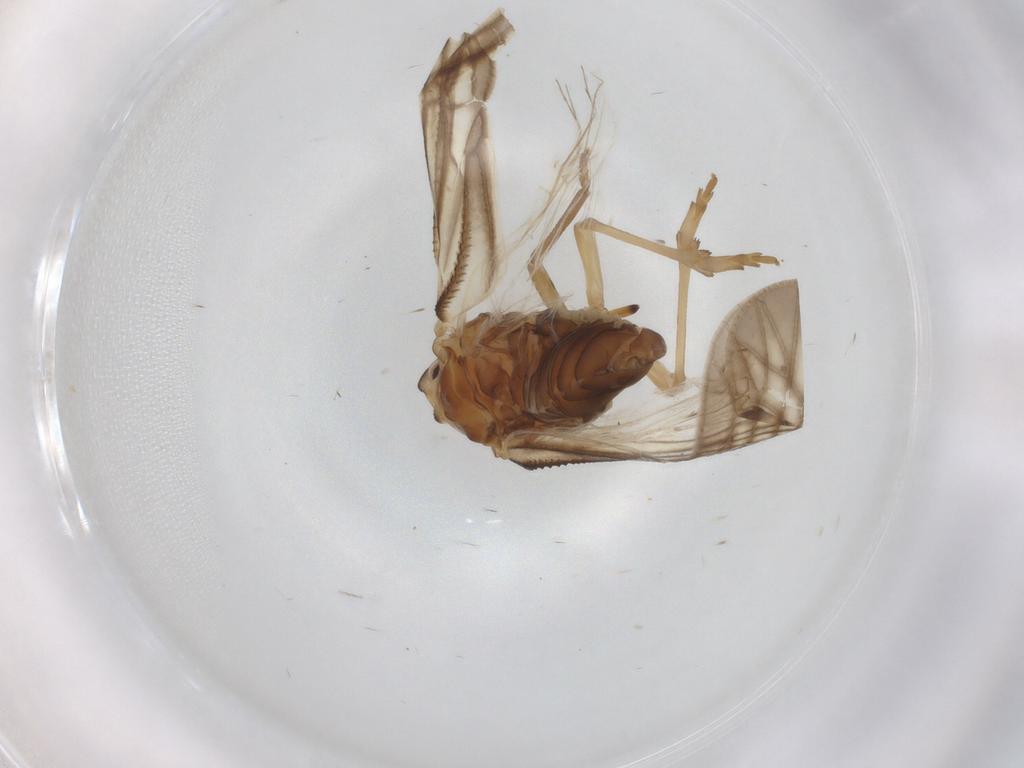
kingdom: Animalia
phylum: Arthropoda
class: Insecta
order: Hemiptera
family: Meenoplidae
